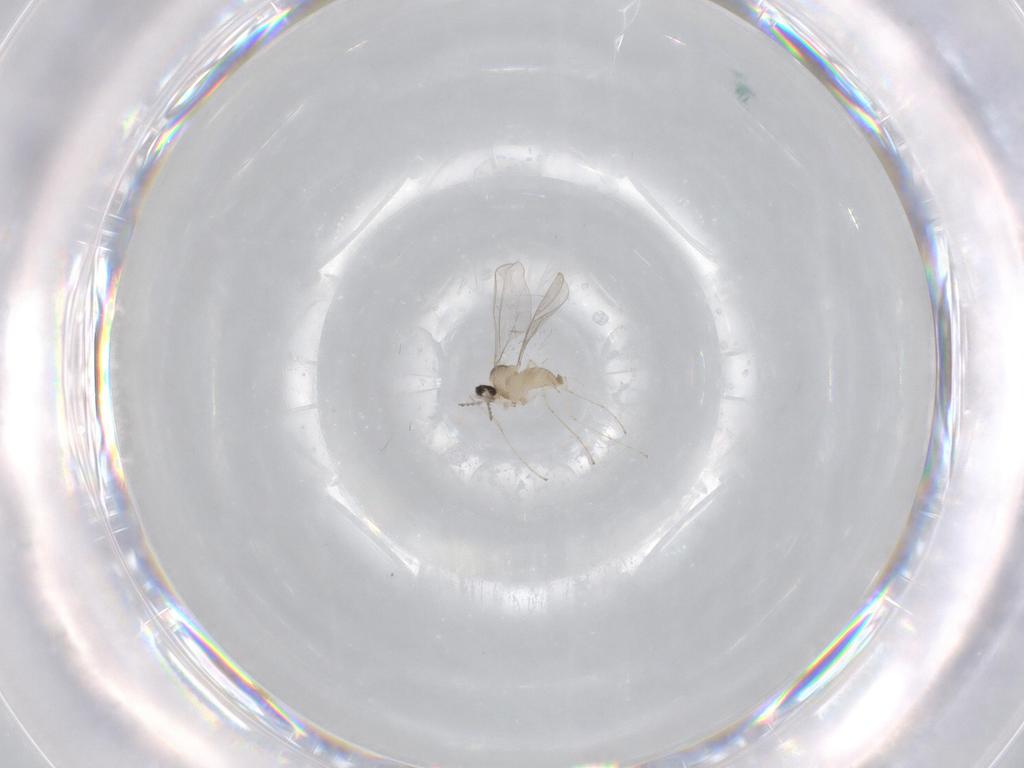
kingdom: Animalia
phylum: Arthropoda
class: Insecta
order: Diptera
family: Cecidomyiidae
